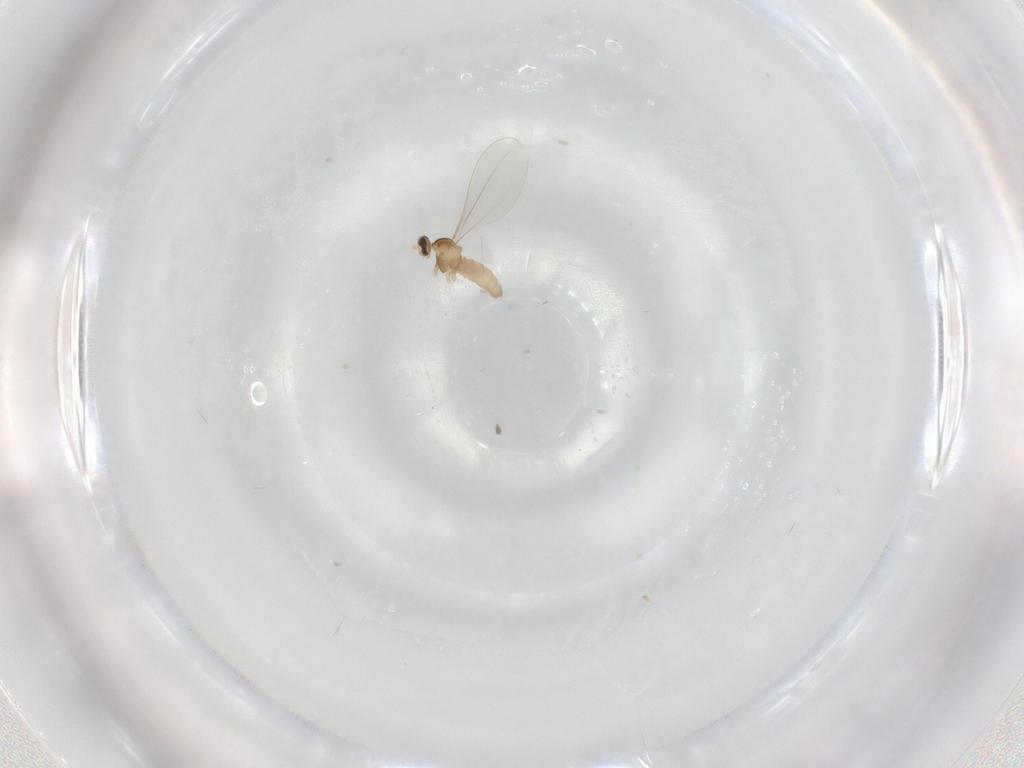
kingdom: Animalia
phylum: Arthropoda
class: Insecta
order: Diptera
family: Cecidomyiidae
